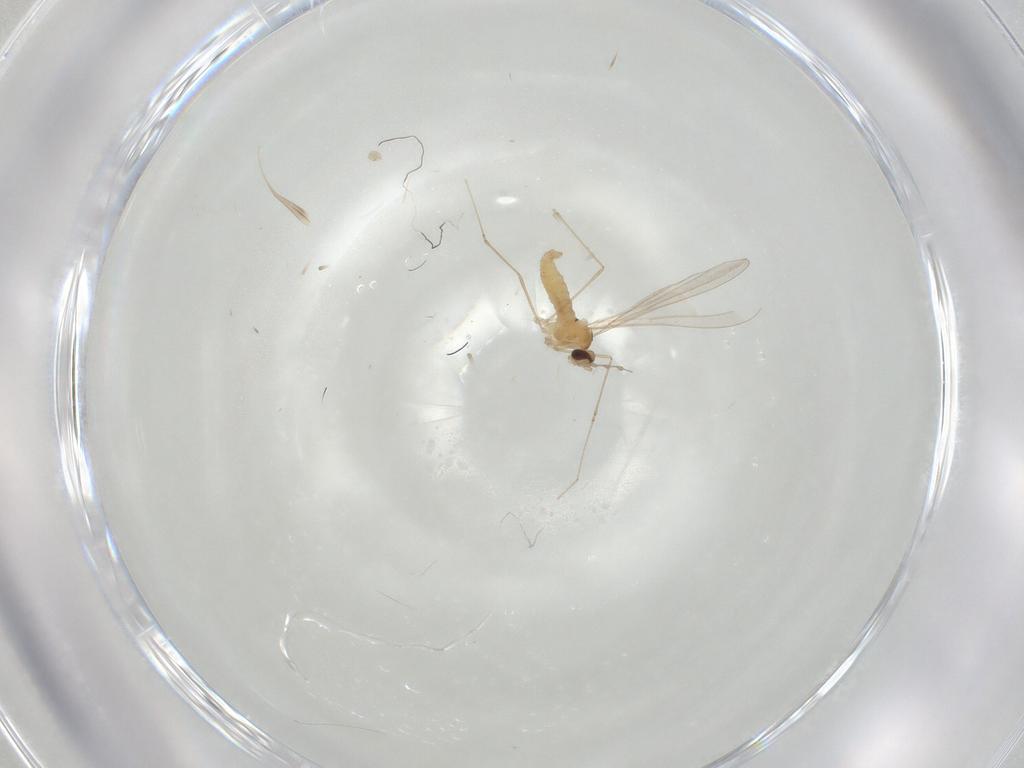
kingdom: Animalia
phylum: Arthropoda
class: Insecta
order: Diptera
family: Cecidomyiidae
